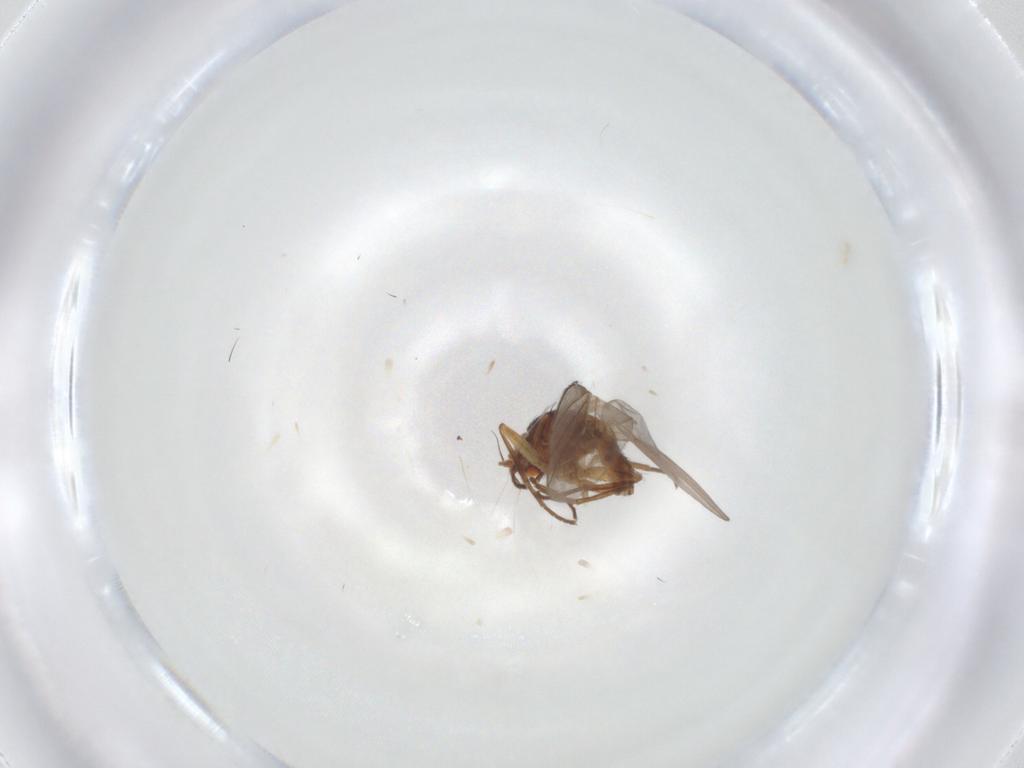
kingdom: Animalia
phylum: Arthropoda
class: Insecta
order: Diptera
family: Agromyzidae
